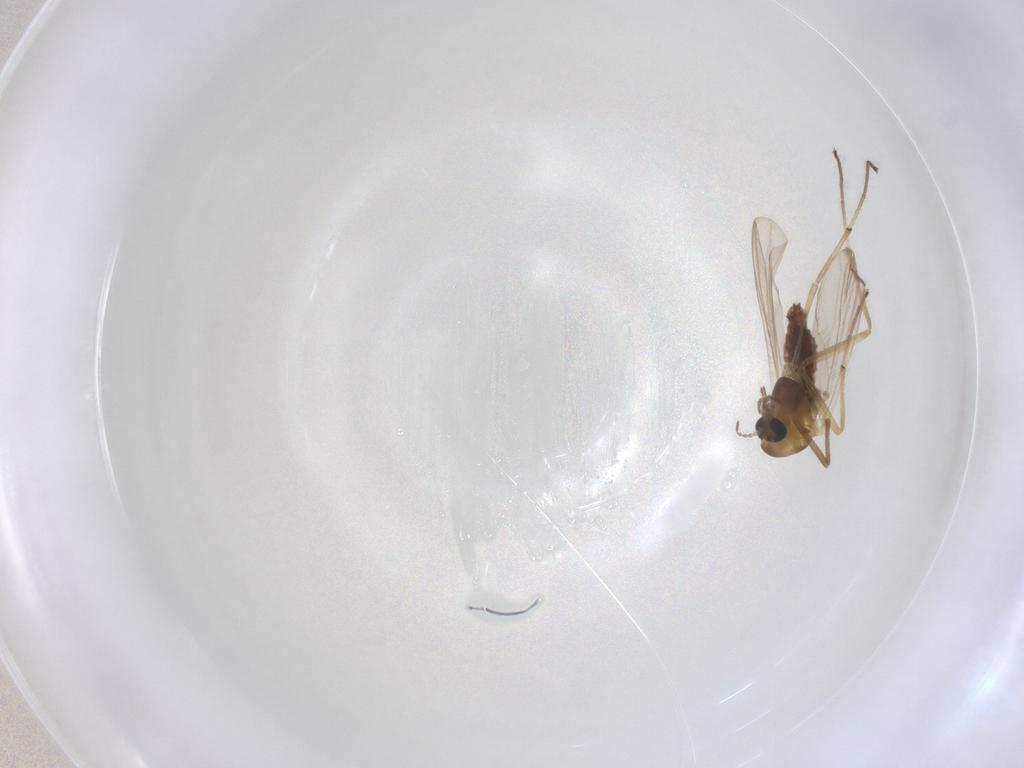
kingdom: Animalia
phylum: Arthropoda
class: Insecta
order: Diptera
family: Chironomidae
